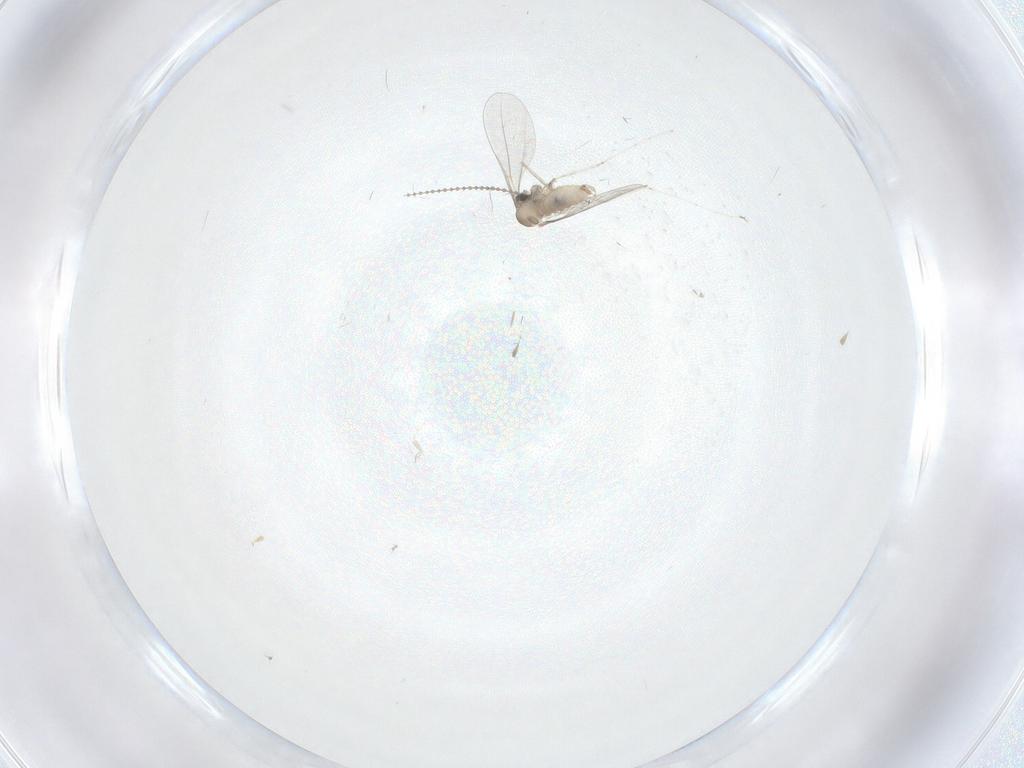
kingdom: Animalia
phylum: Arthropoda
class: Insecta
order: Diptera
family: Cecidomyiidae
